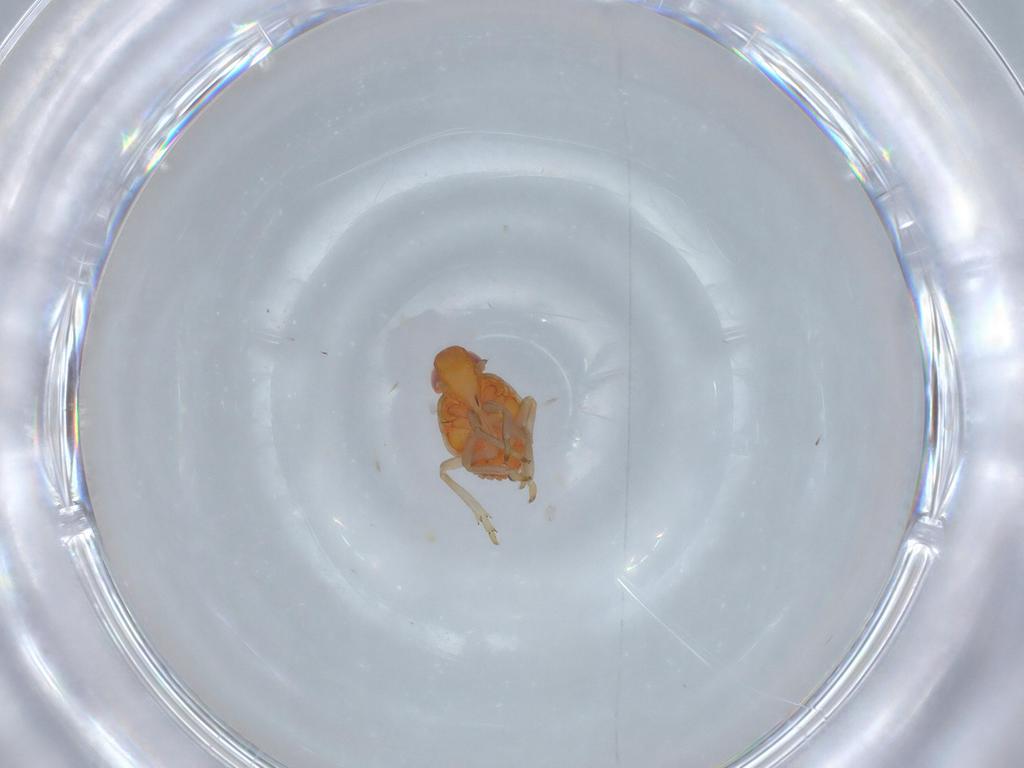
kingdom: Animalia
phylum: Arthropoda
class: Insecta
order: Hemiptera
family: Fulgoroidea_incertae_sedis
